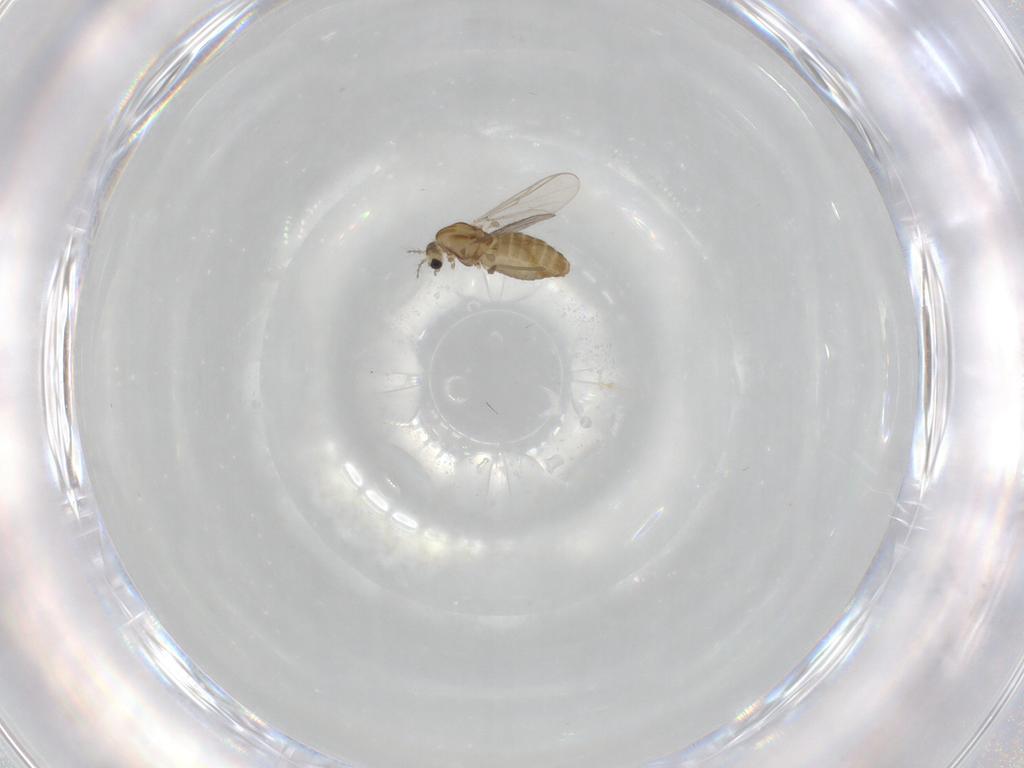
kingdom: Animalia
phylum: Arthropoda
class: Insecta
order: Diptera
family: Chironomidae
